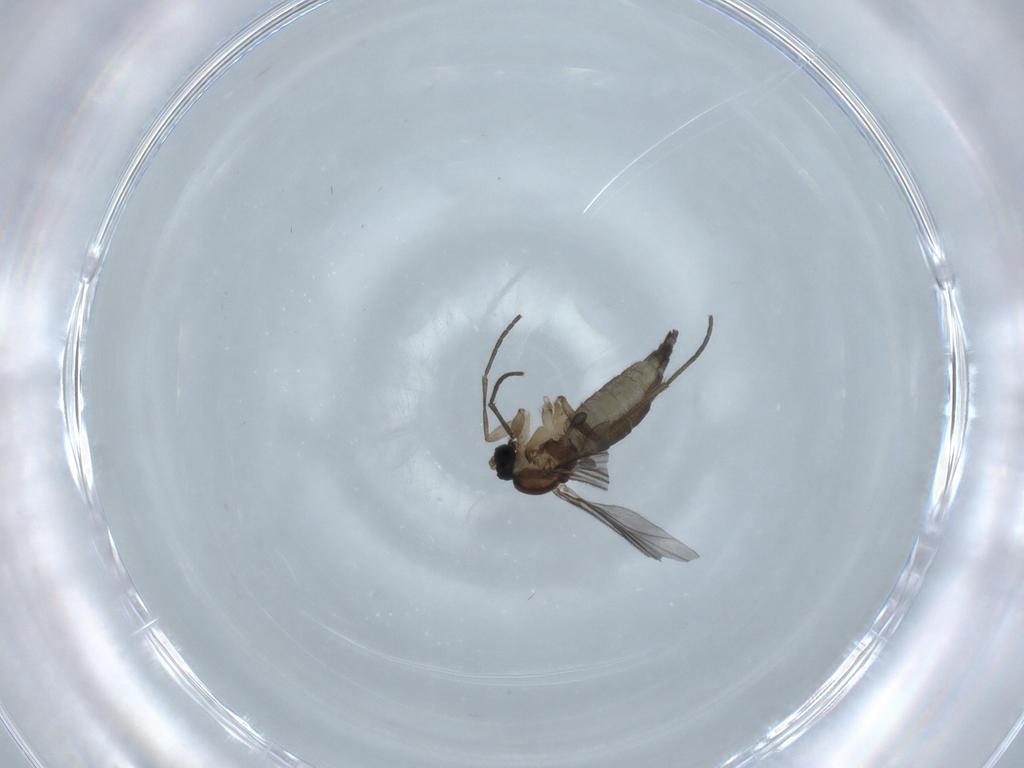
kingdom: Animalia
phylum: Arthropoda
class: Insecta
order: Diptera
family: Sciaridae
